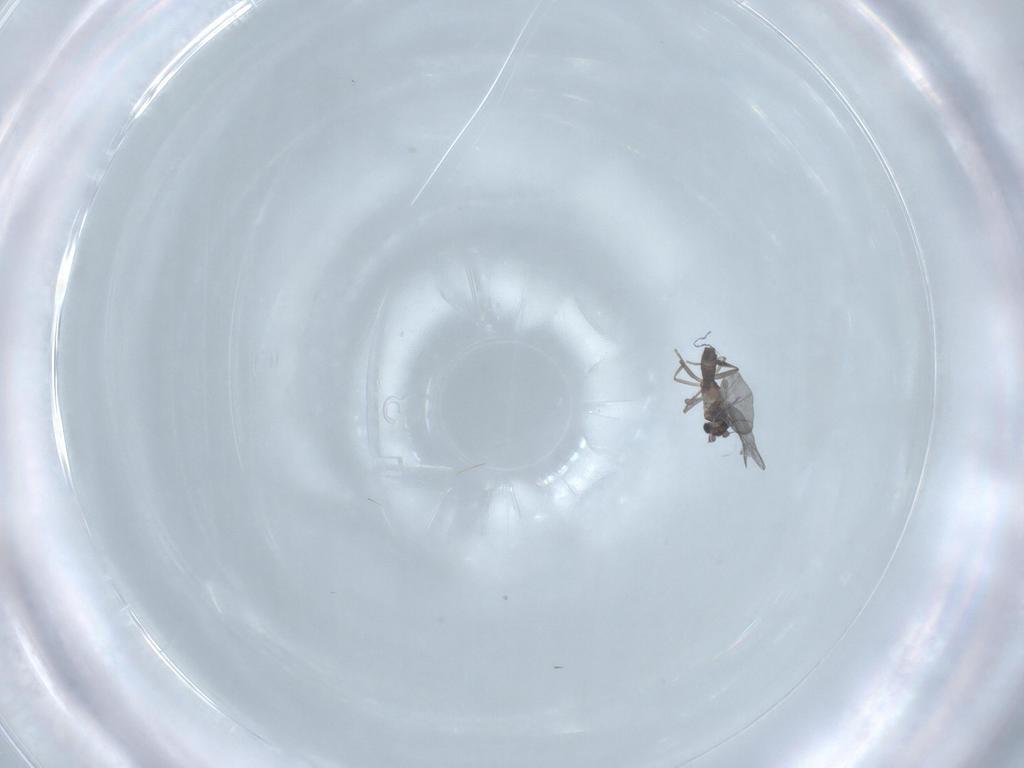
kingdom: Animalia
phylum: Arthropoda
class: Insecta
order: Diptera
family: Phoridae
